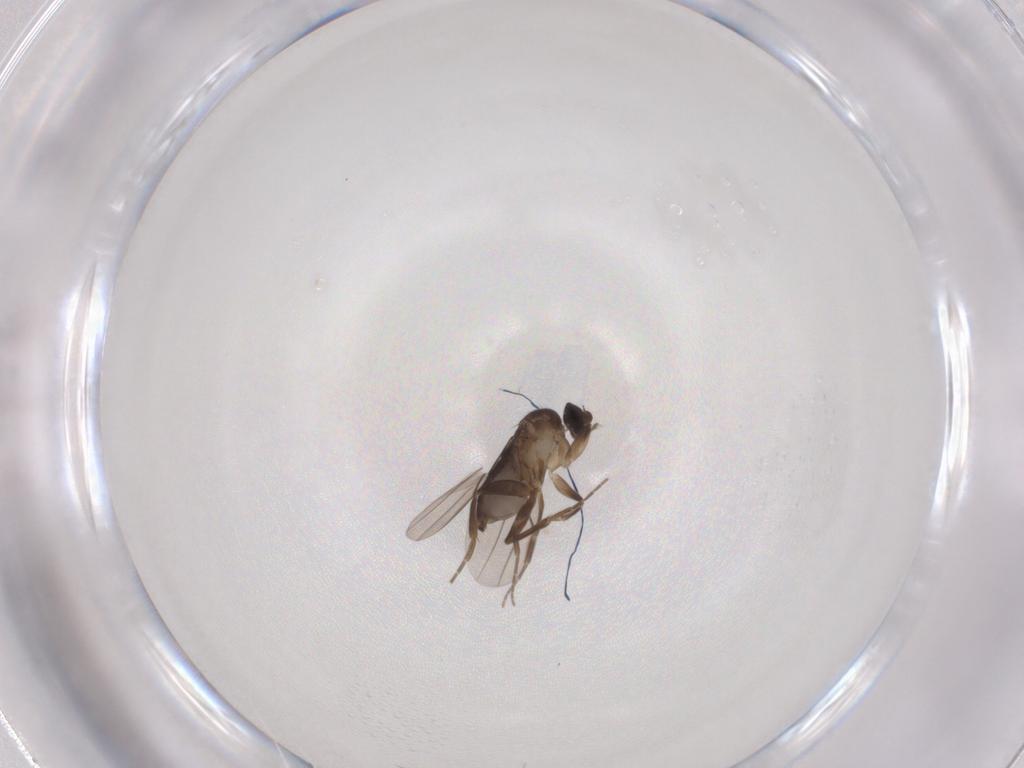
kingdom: Animalia
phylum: Arthropoda
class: Insecta
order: Diptera
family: Phoridae
